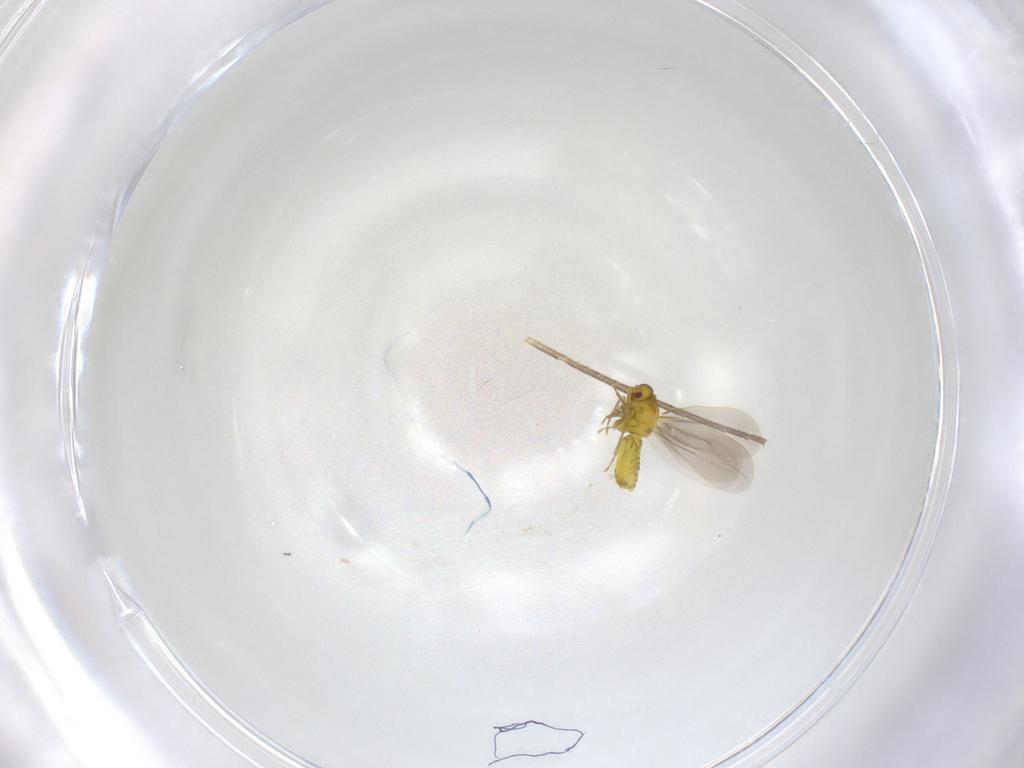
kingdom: Animalia
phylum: Arthropoda
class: Insecta
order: Hemiptera
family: Aleyrodidae
